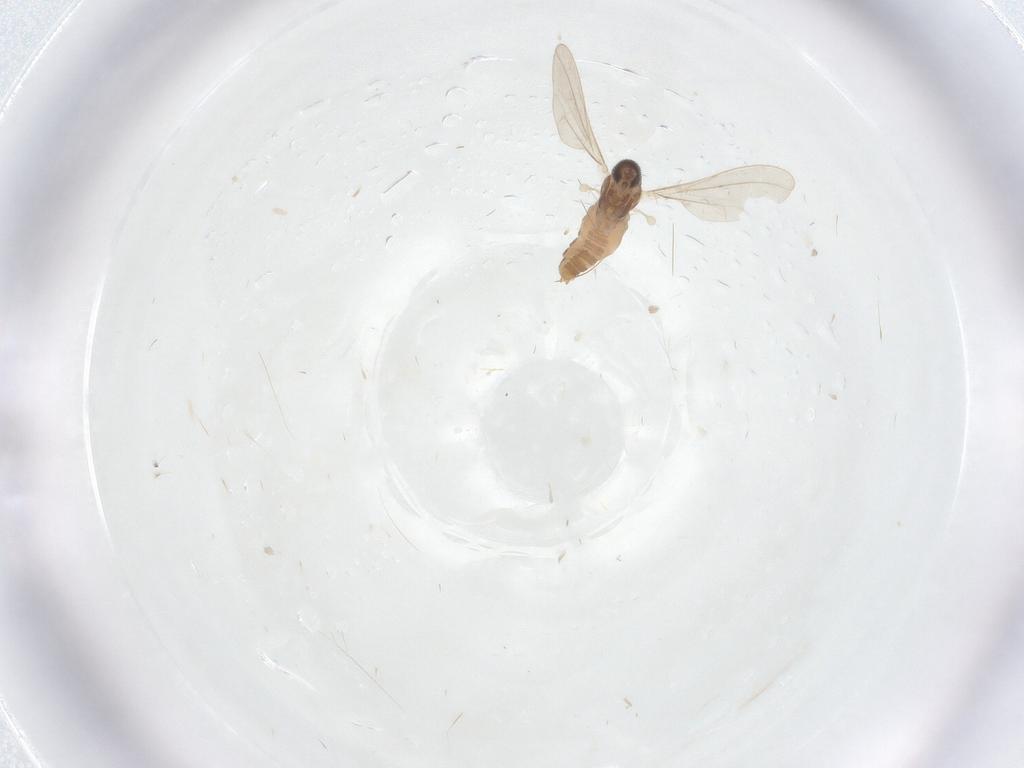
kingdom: Animalia
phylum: Arthropoda
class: Insecta
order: Diptera
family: Cecidomyiidae
